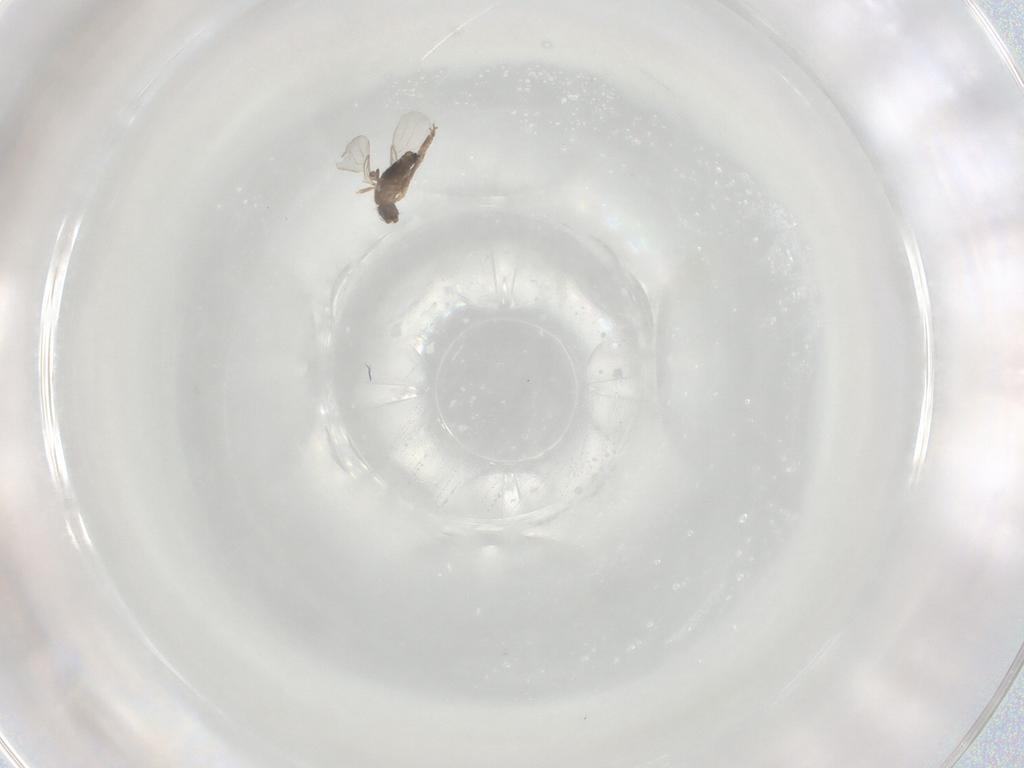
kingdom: Animalia
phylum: Arthropoda
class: Insecta
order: Diptera
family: Phoridae
